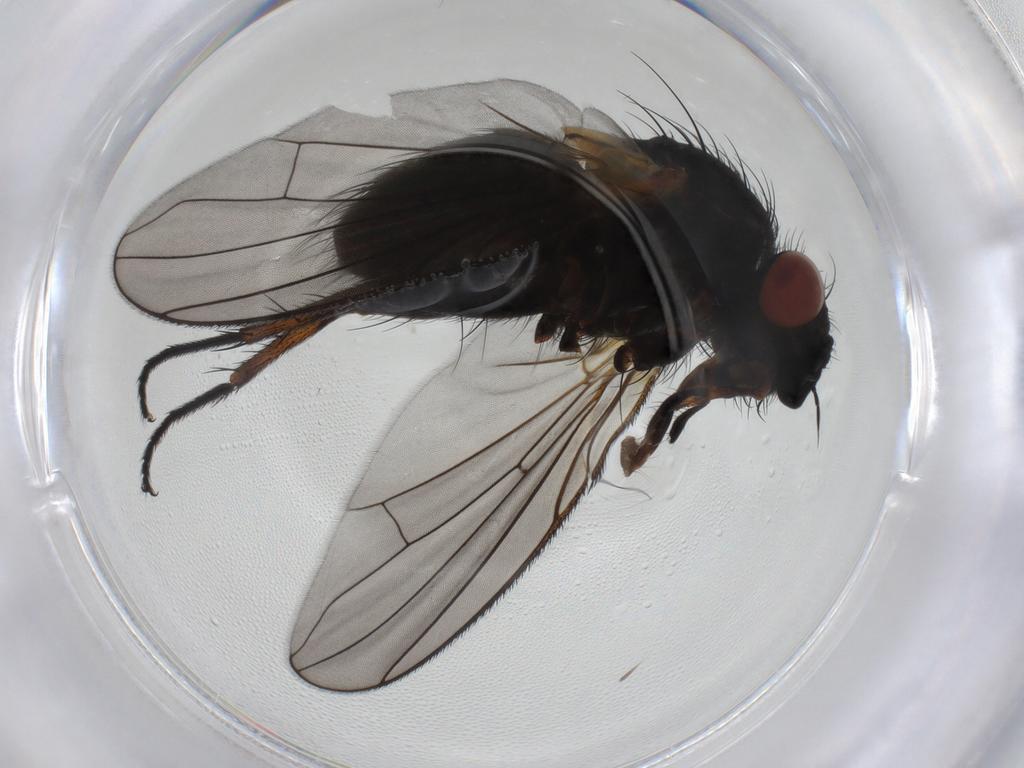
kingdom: Animalia
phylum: Arthropoda
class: Insecta
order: Diptera
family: Tachinidae
